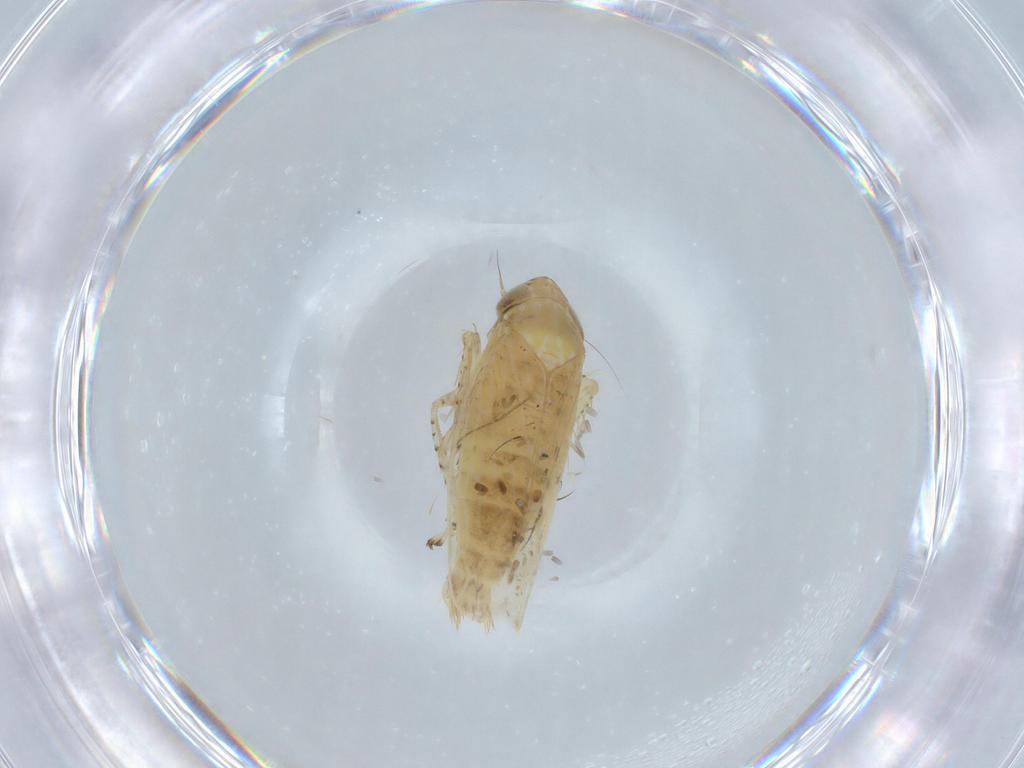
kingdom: Animalia
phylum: Arthropoda
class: Insecta
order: Hemiptera
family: Cicadellidae
